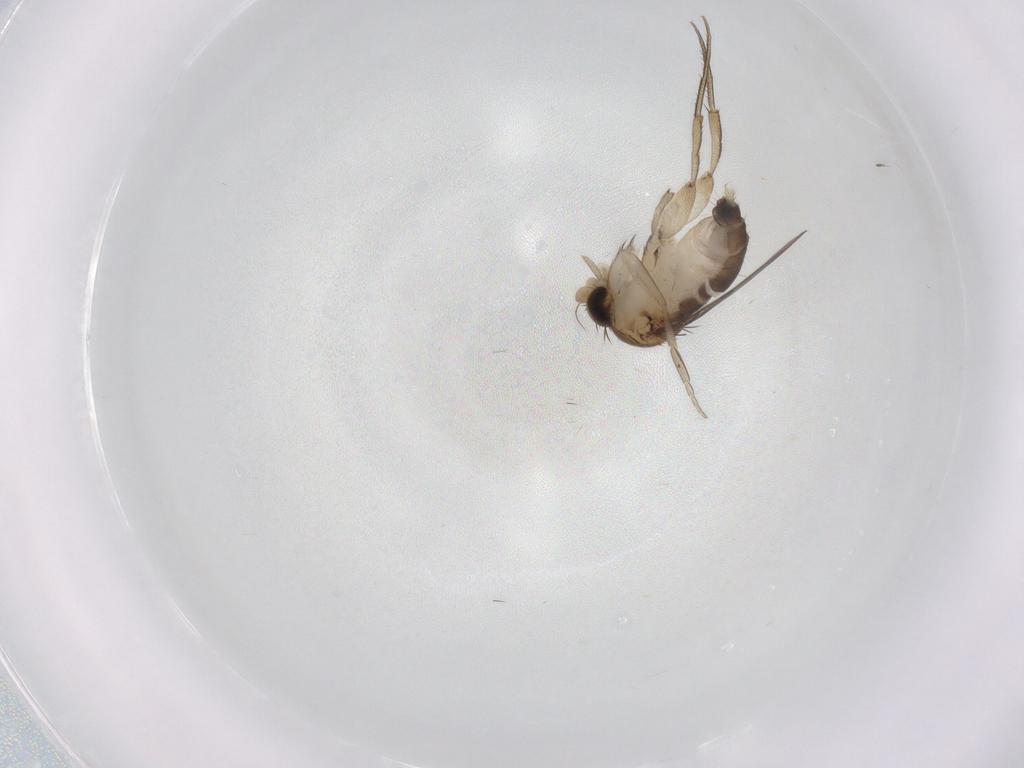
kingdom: Animalia
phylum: Arthropoda
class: Insecta
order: Diptera
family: Phoridae
